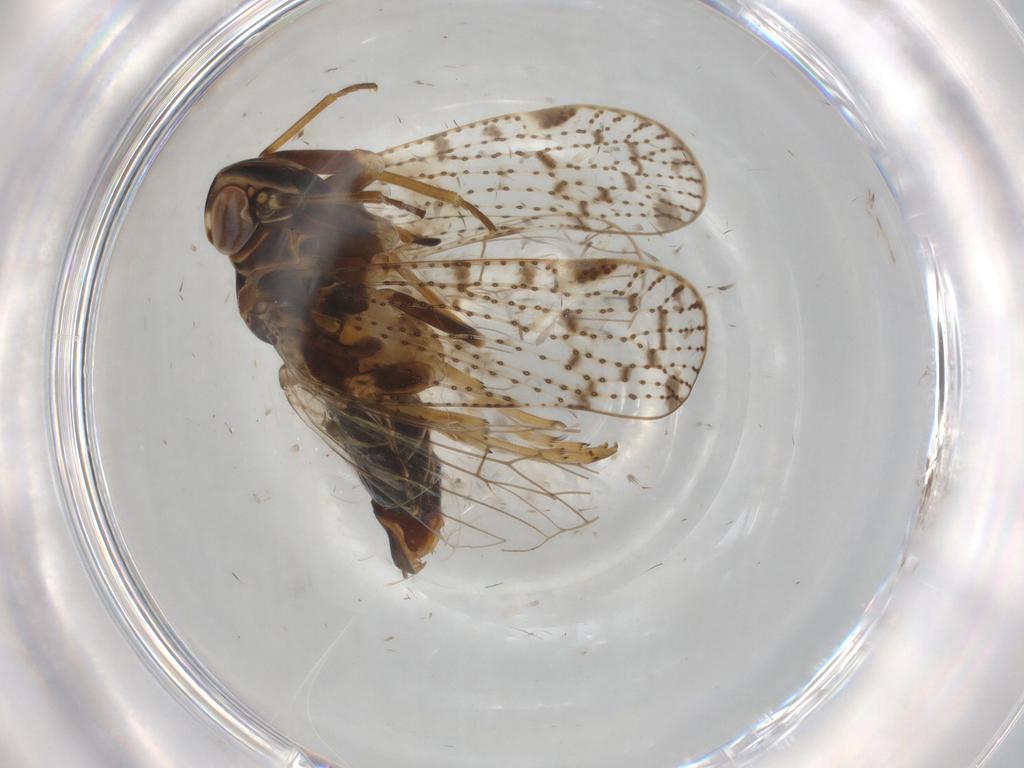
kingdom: Animalia
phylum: Arthropoda
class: Insecta
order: Hemiptera
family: Cixiidae
